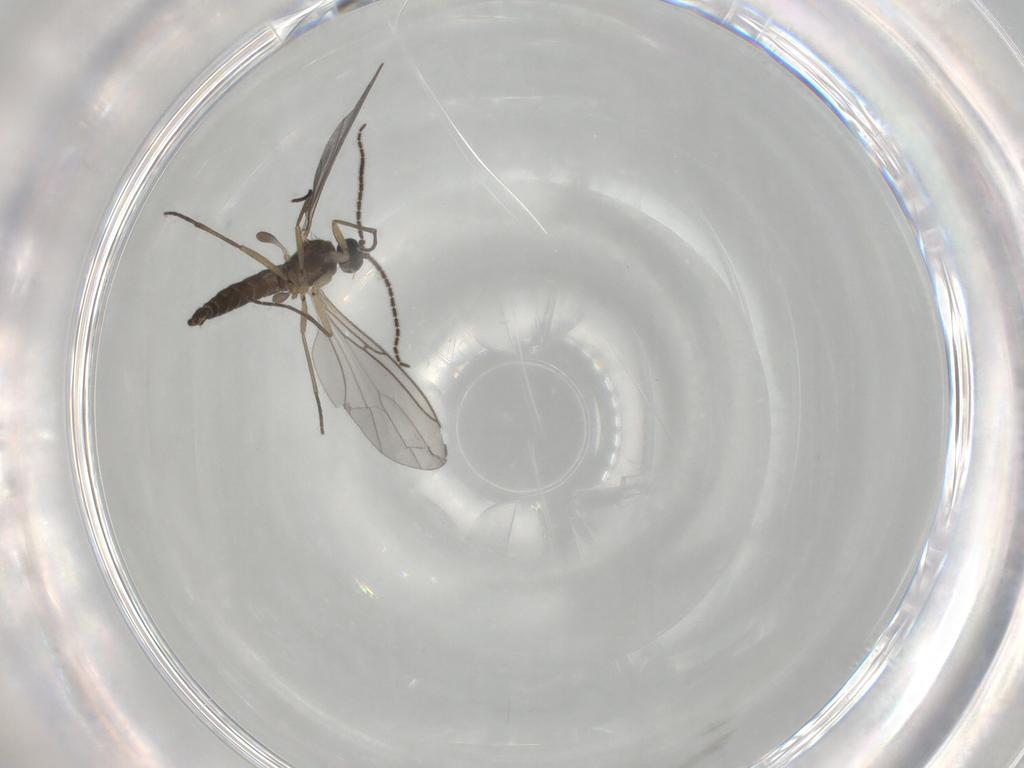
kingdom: Animalia
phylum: Arthropoda
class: Insecta
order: Diptera
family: Sciaridae
